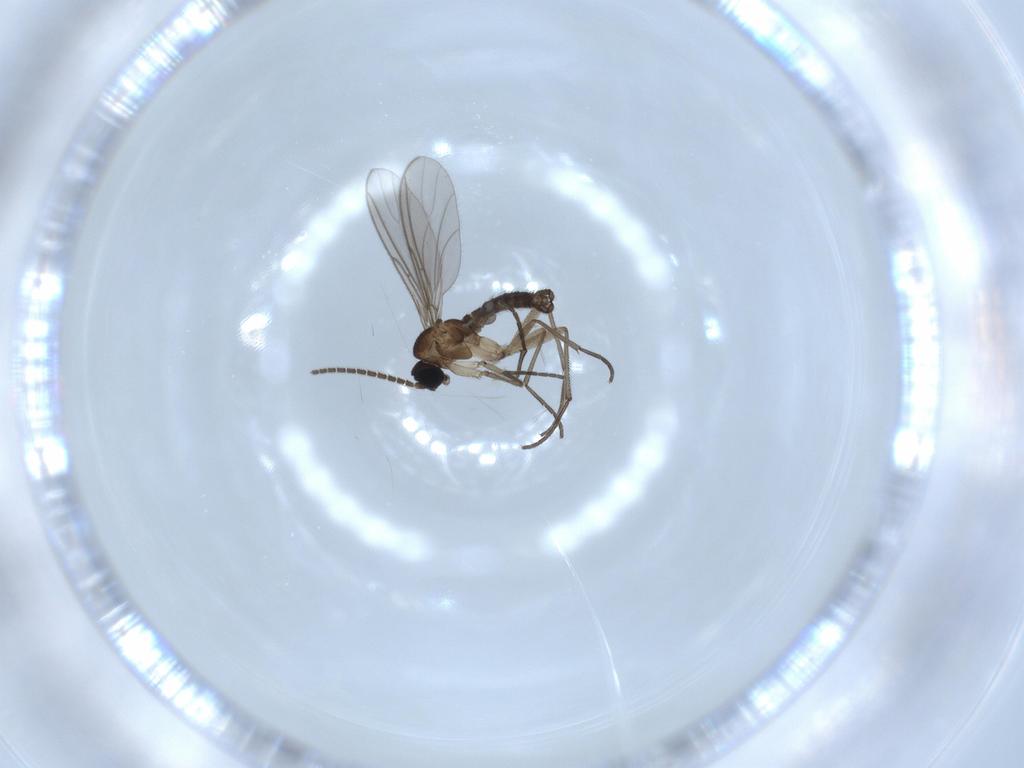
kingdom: Animalia
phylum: Arthropoda
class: Insecta
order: Diptera
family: Sciaridae
